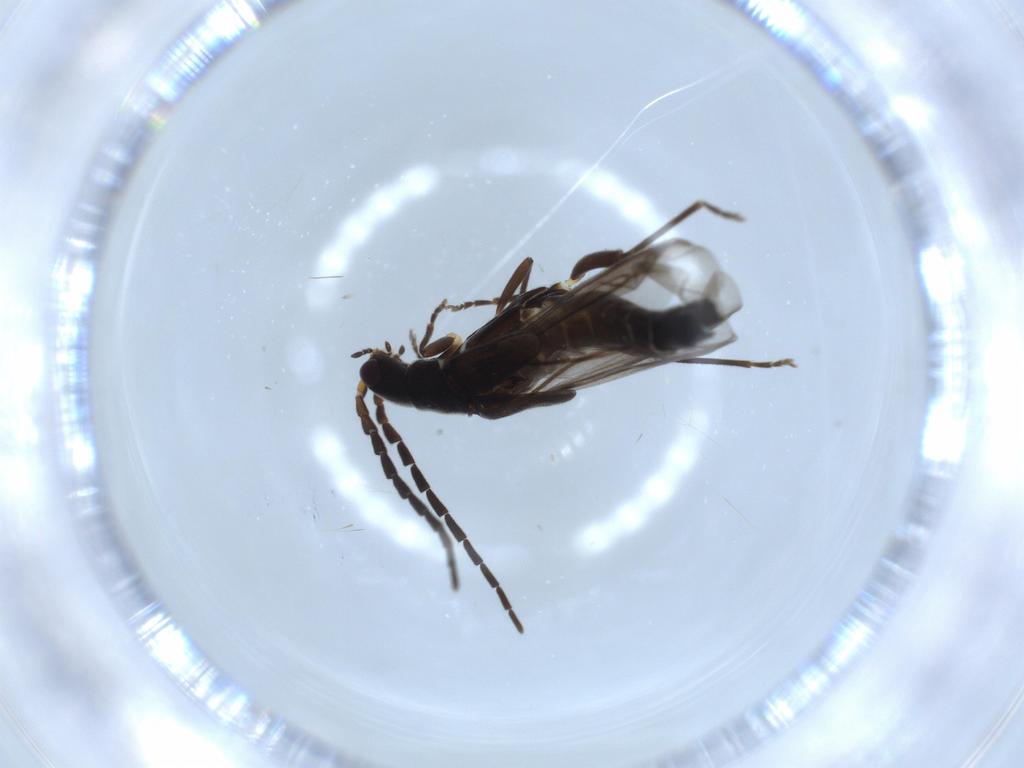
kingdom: Animalia
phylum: Arthropoda
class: Insecta
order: Coleoptera
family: Cantharidae
